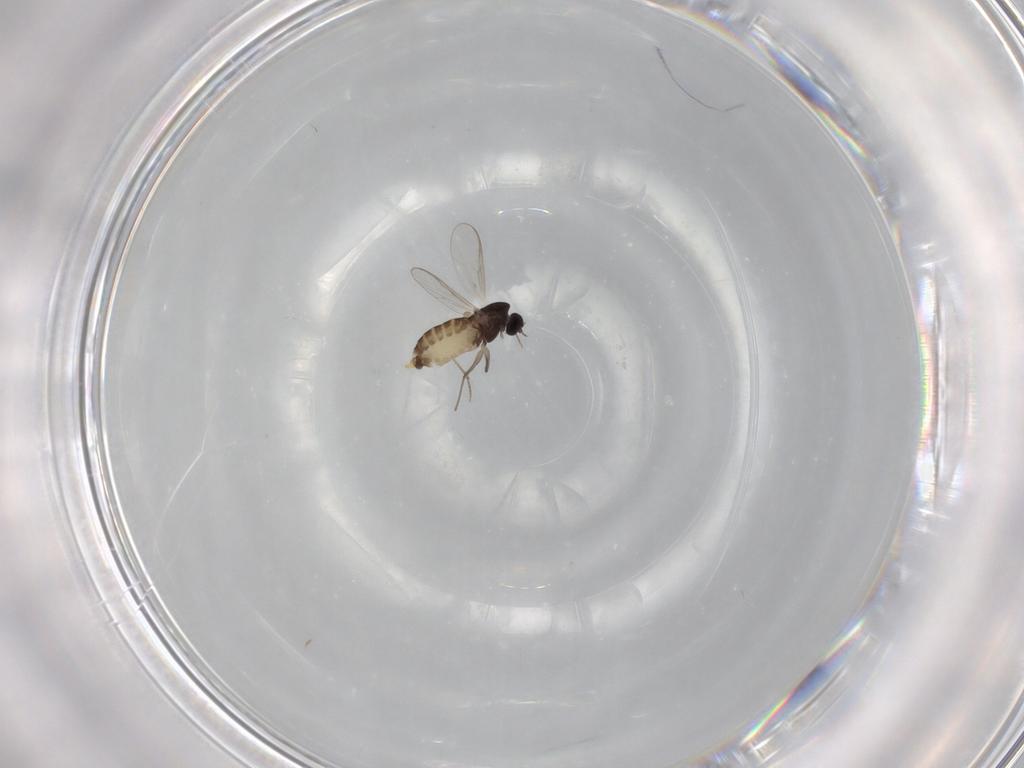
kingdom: Animalia
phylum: Arthropoda
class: Insecta
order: Diptera
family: Chironomidae
